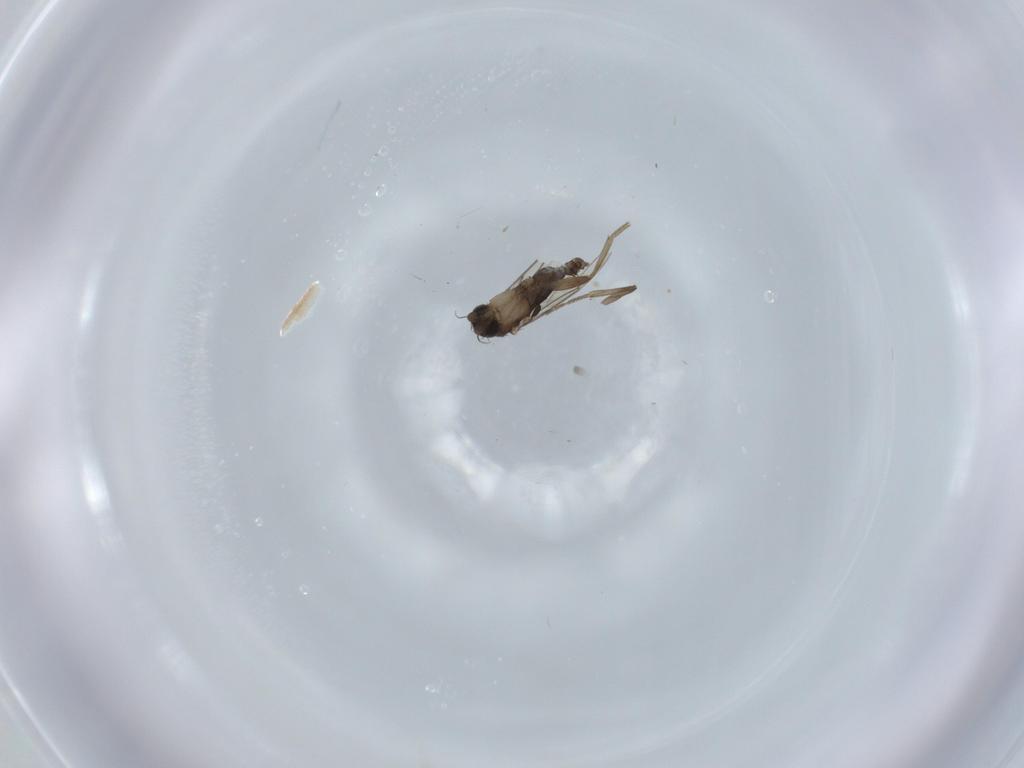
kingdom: Animalia
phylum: Arthropoda
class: Insecta
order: Diptera
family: Phoridae
